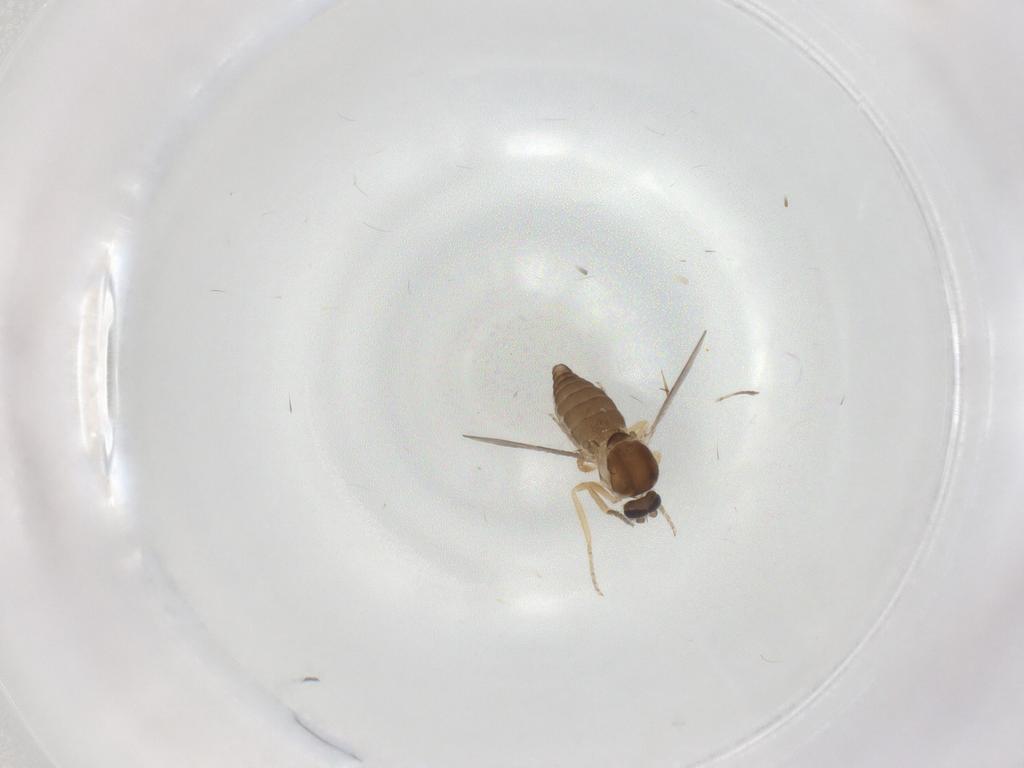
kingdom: Animalia
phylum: Arthropoda
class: Insecta
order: Diptera
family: Ceratopogonidae
